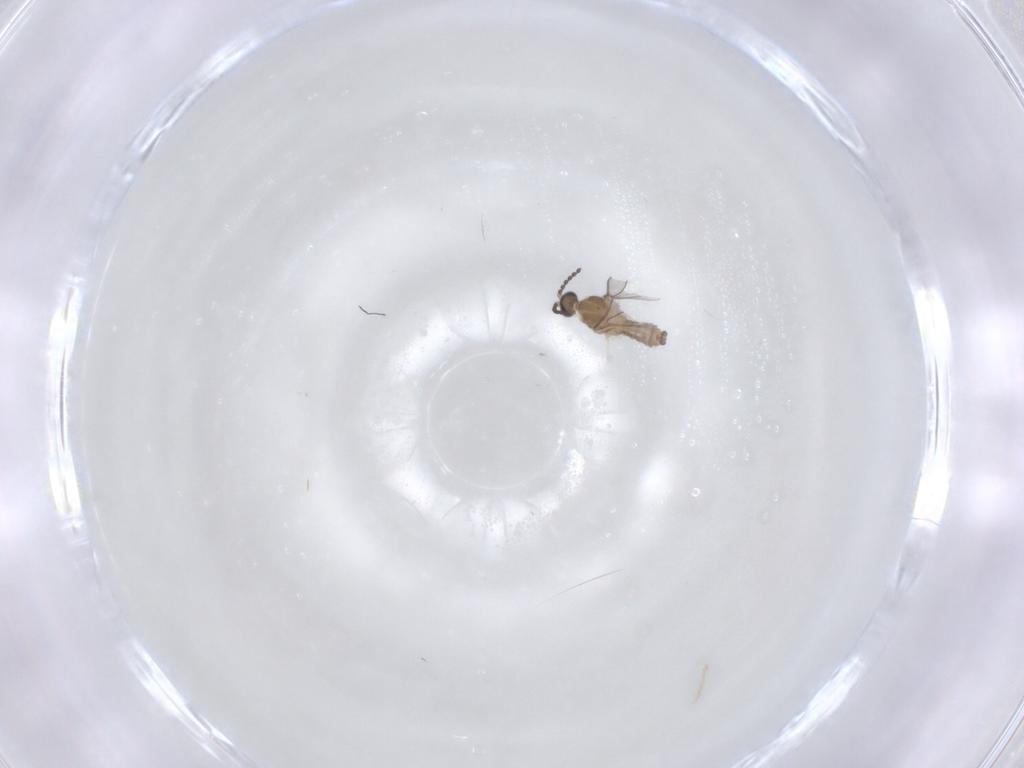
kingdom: Animalia
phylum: Arthropoda
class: Insecta
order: Diptera
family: Cecidomyiidae
